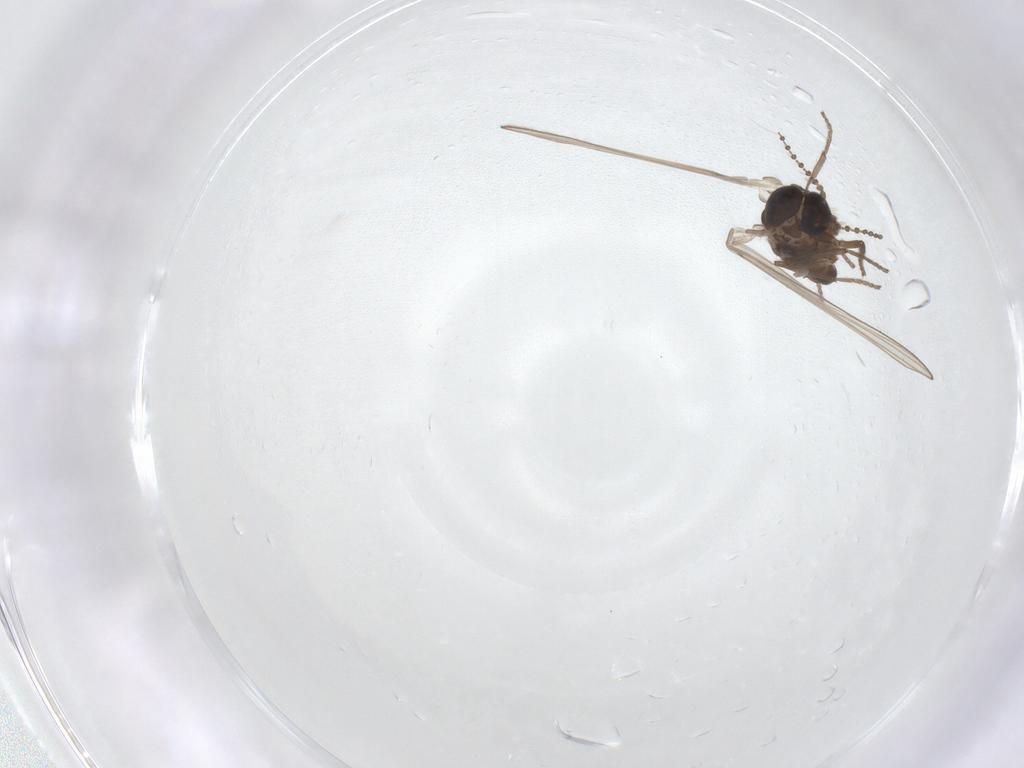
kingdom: Animalia
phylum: Arthropoda
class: Insecta
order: Diptera
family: Psychodidae
